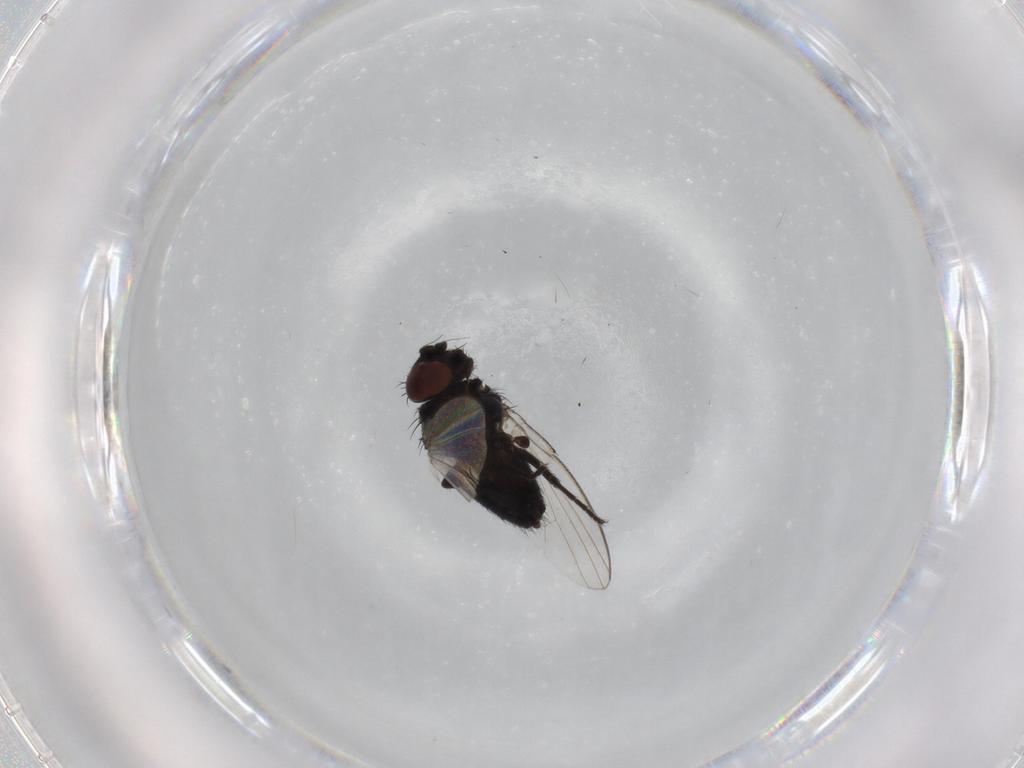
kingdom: Animalia
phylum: Arthropoda
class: Insecta
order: Diptera
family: Milichiidae
